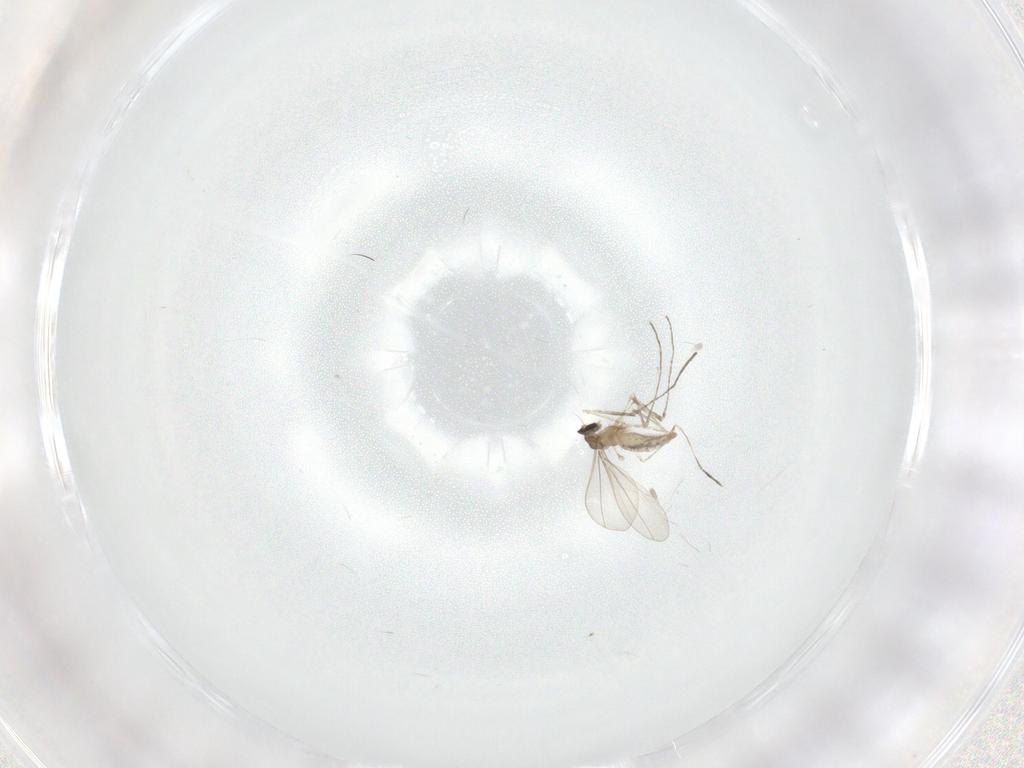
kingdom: Animalia
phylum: Arthropoda
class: Insecta
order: Diptera
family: Cecidomyiidae
